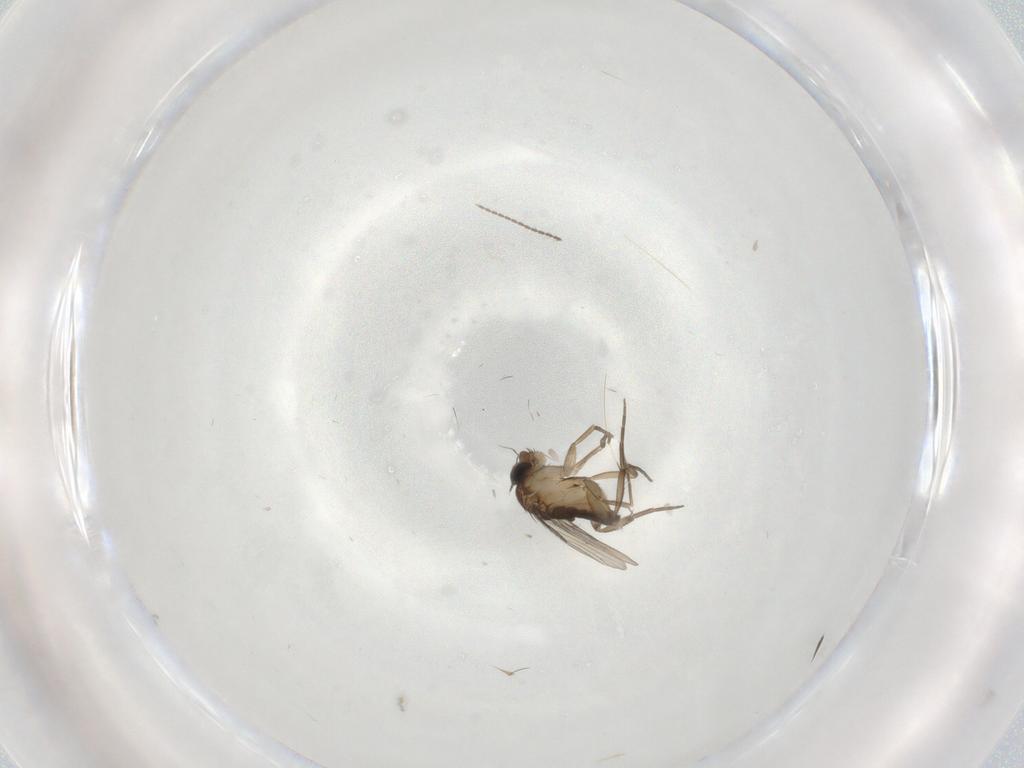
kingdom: Animalia
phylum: Arthropoda
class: Insecta
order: Diptera
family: Phoridae
